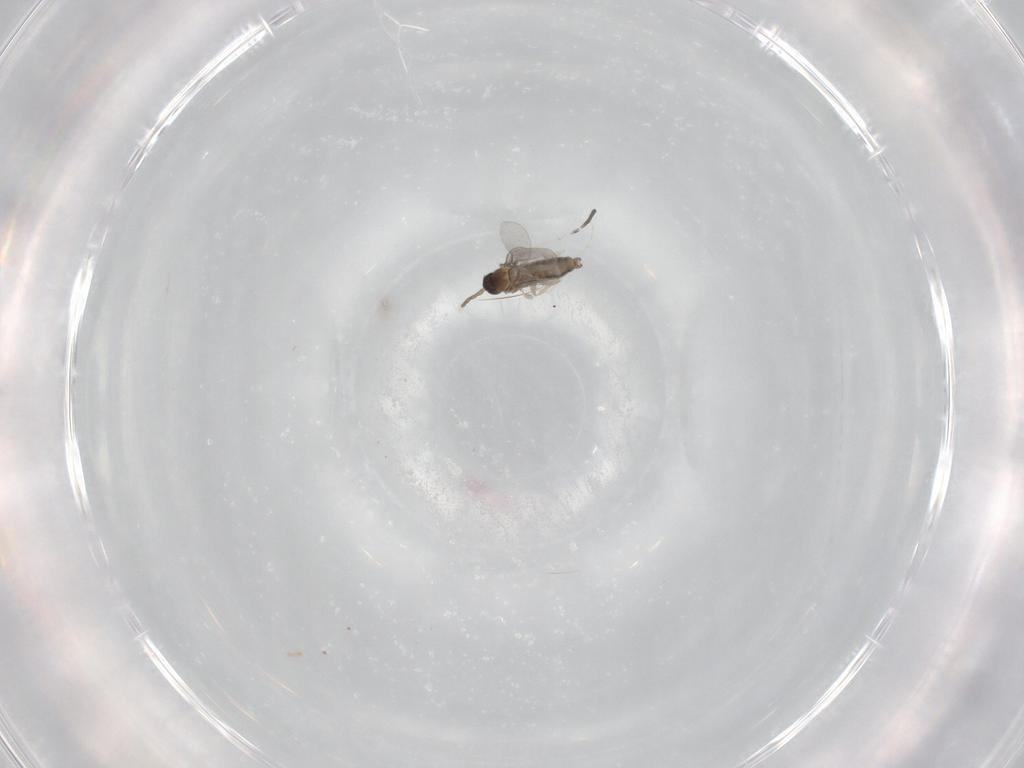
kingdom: Animalia
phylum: Arthropoda
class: Insecta
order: Diptera
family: Cecidomyiidae
